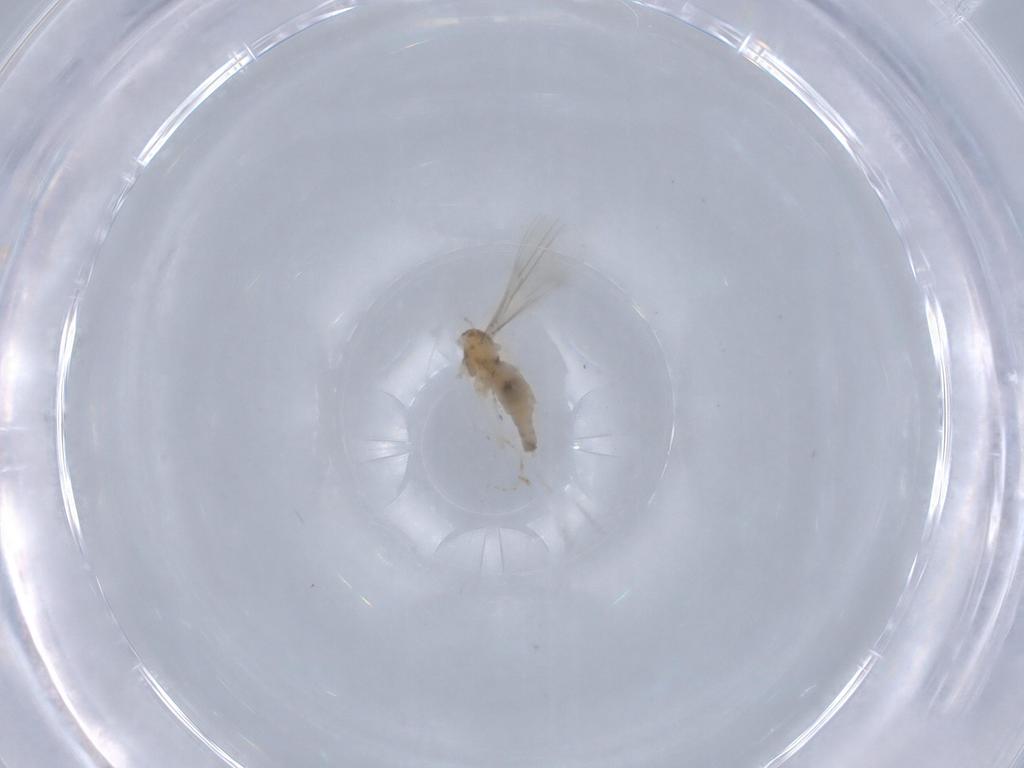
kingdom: Animalia
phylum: Arthropoda
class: Insecta
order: Diptera
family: Cecidomyiidae
